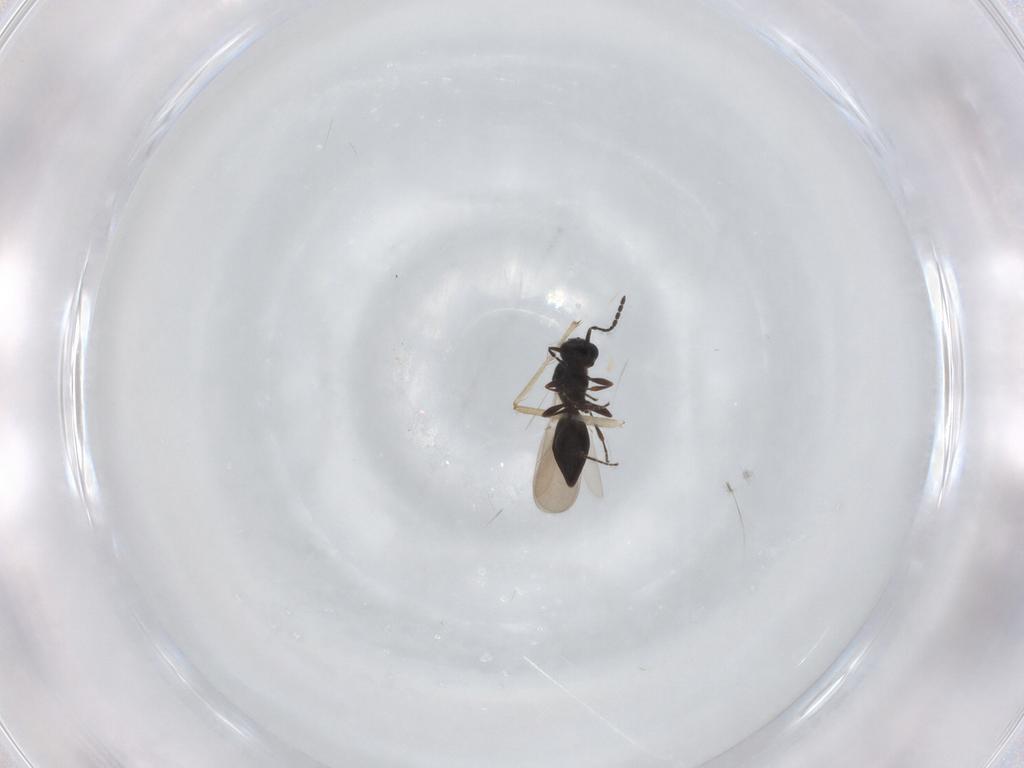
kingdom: Animalia
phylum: Arthropoda
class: Insecta
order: Hymenoptera
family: Platygastridae
